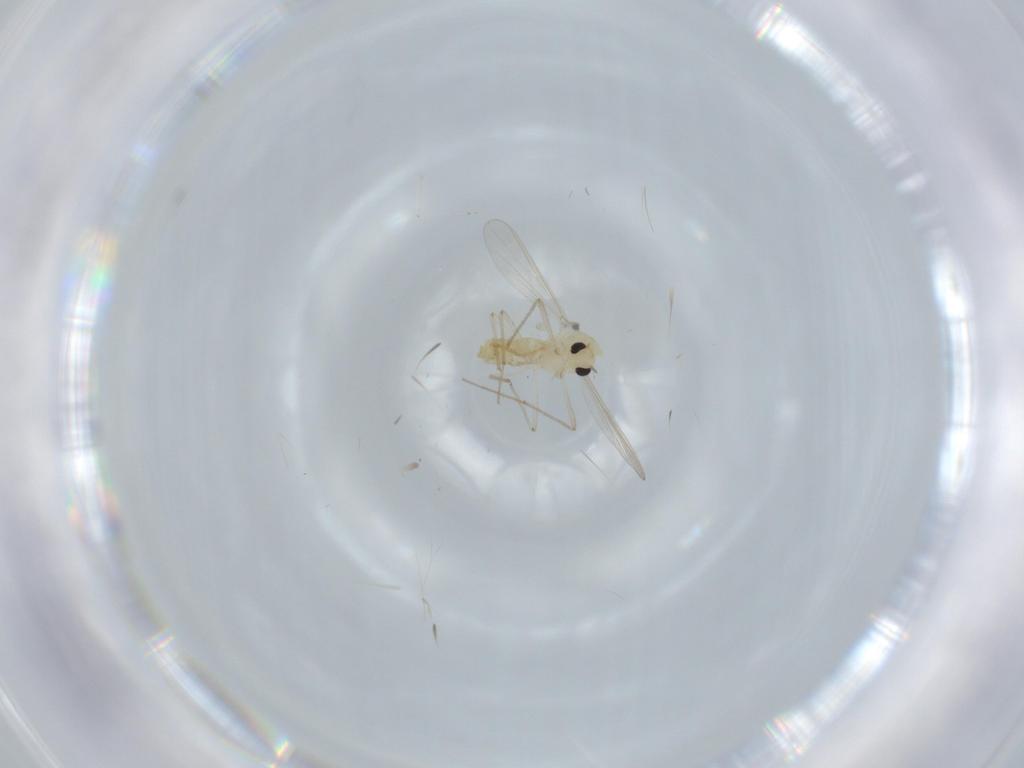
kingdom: Animalia
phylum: Arthropoda
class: Insecta
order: Diptera
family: Chironomidae
